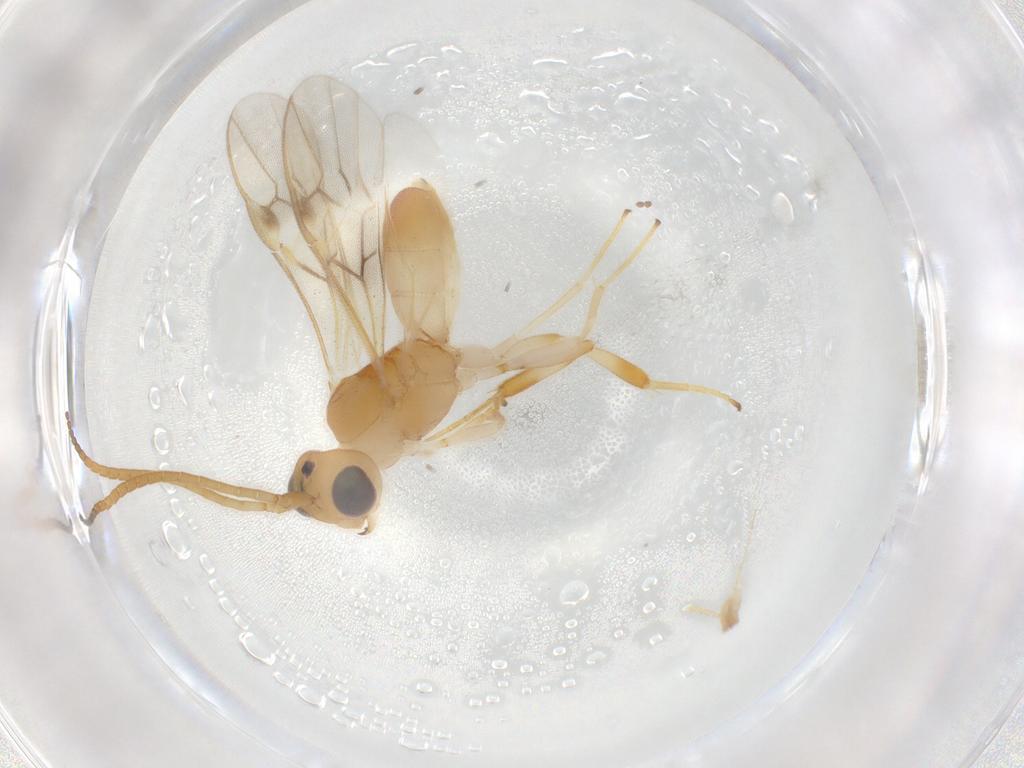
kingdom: Animalia
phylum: Arthropoda
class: Insecta
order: Hymenoptera
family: Braconidae
